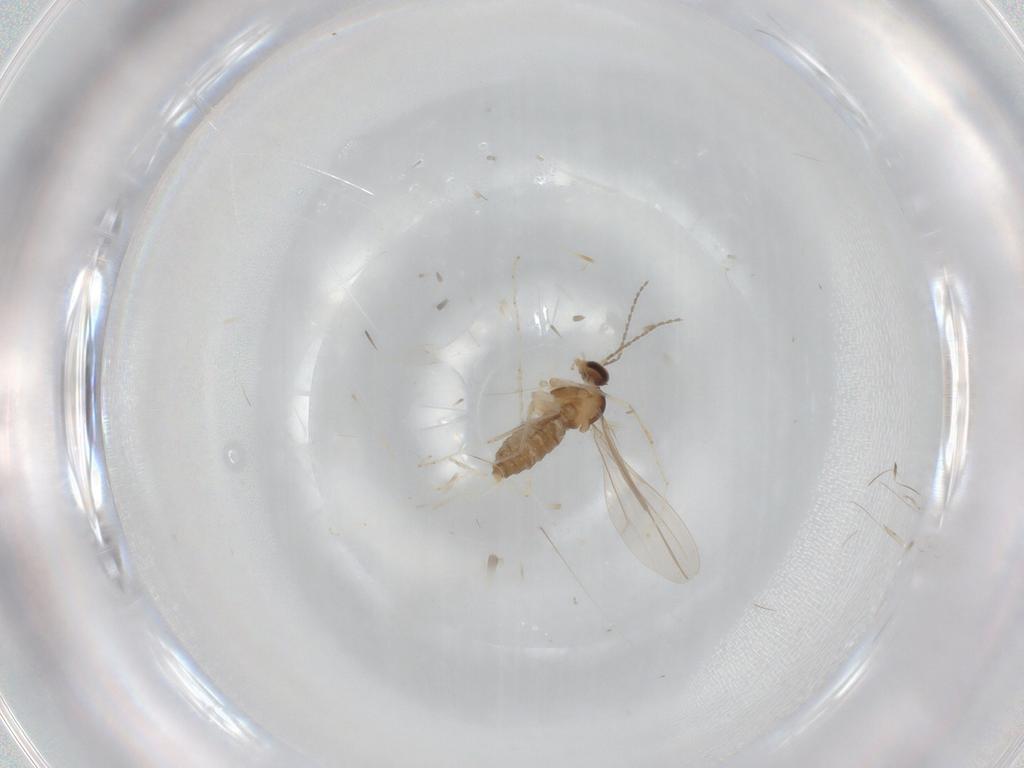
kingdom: Animalia
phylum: Arthropoda
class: Insecta
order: Diptera
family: Cecidomyiidae
